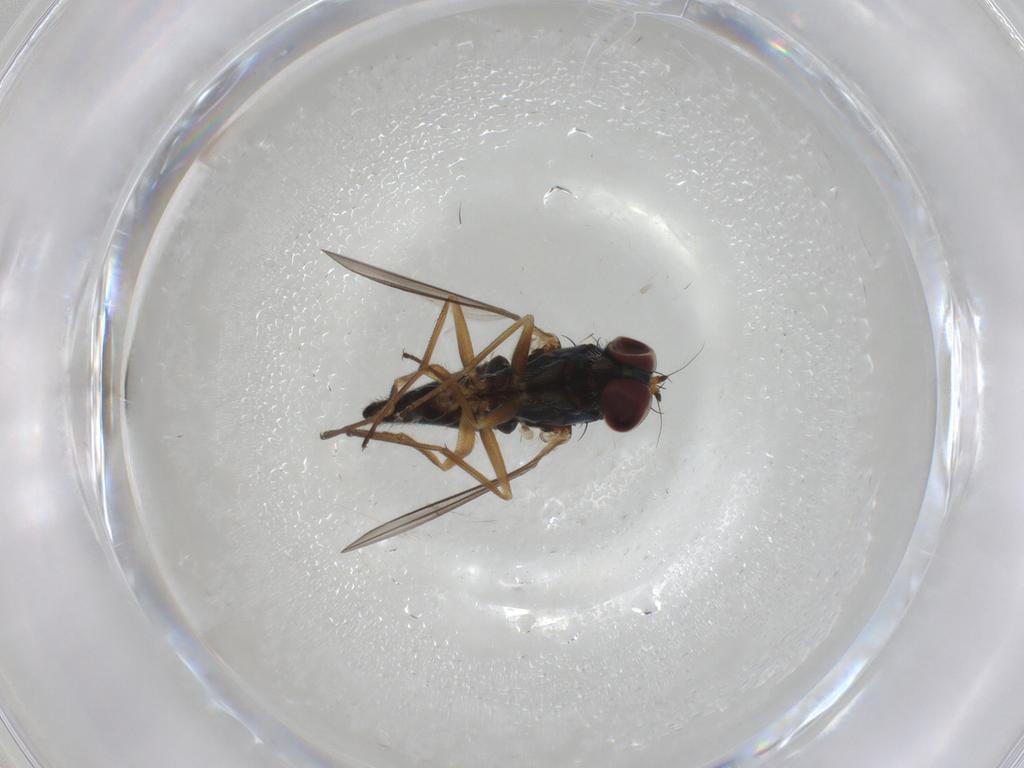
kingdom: Animalia
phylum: Arthropoda
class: Insecta
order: Diptera
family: Dolichopodidae
